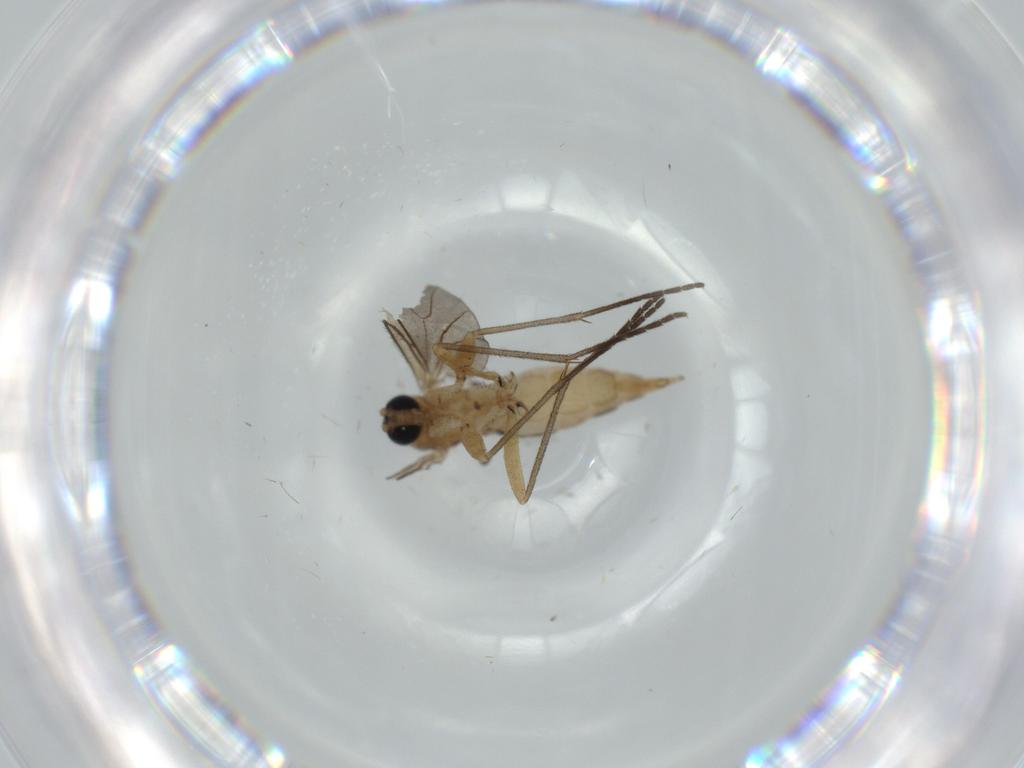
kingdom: Animalia
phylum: Arthropoda
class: Insecta
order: Diptera
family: Sciaridae
